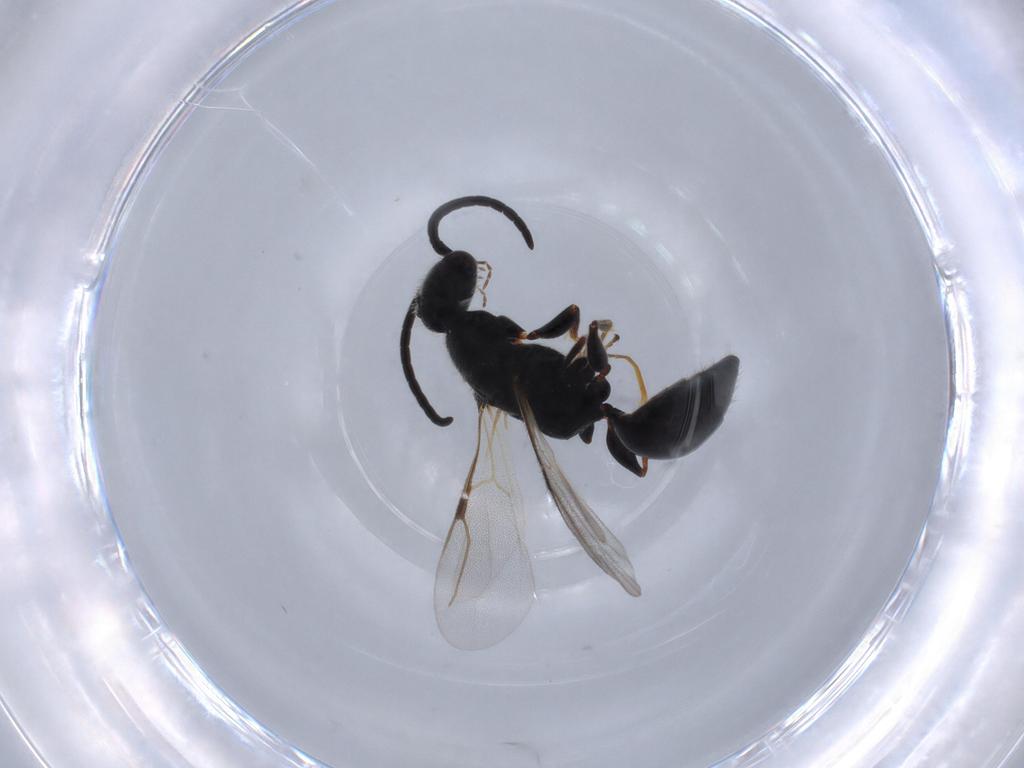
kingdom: Animalia
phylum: Arthropoda
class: Insecta
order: Hymenoptera
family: Bethylidae
